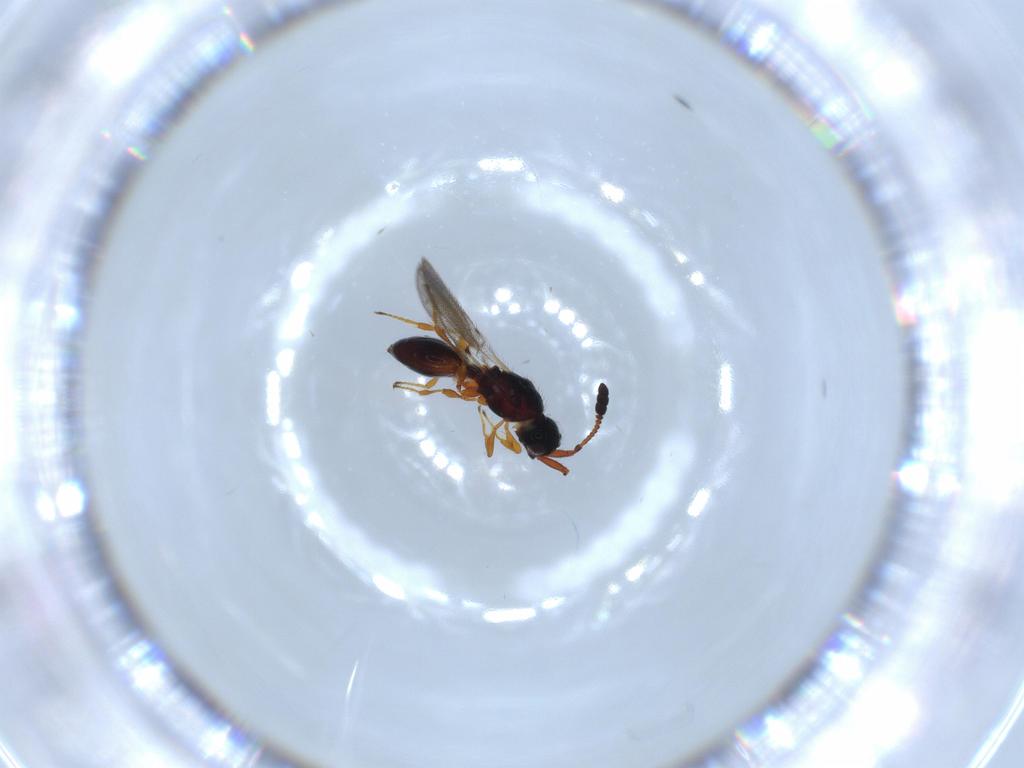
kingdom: Animalia
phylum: Arthropoda
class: Insecta
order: Hymenoptera
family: Diapriidae
